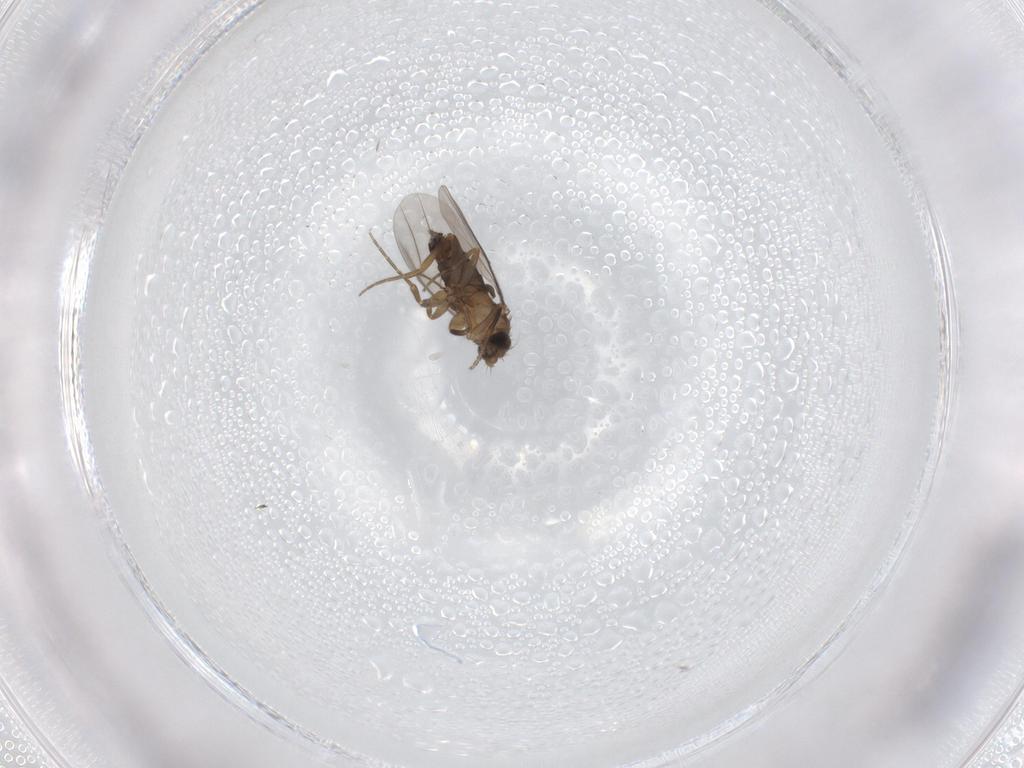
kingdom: Animalia
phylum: Arthropoda
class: Insecta
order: Diptera
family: Phoridae
